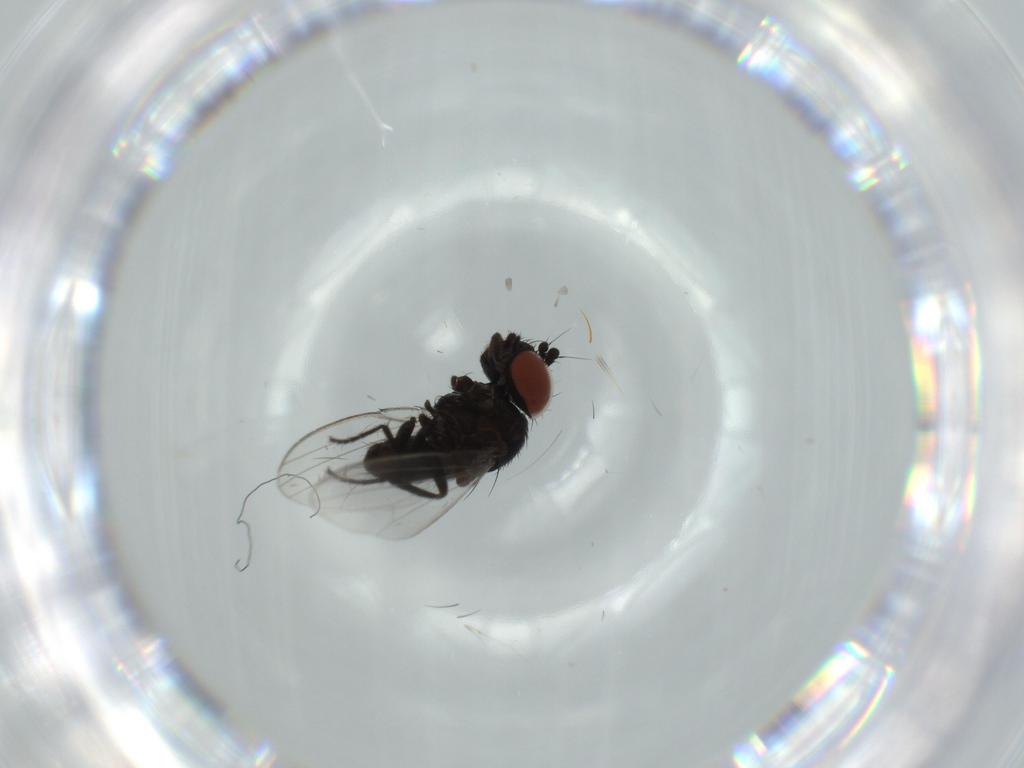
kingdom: Animalia
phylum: Arthropoda
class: Insecta
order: Diptera
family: Milichiidae
